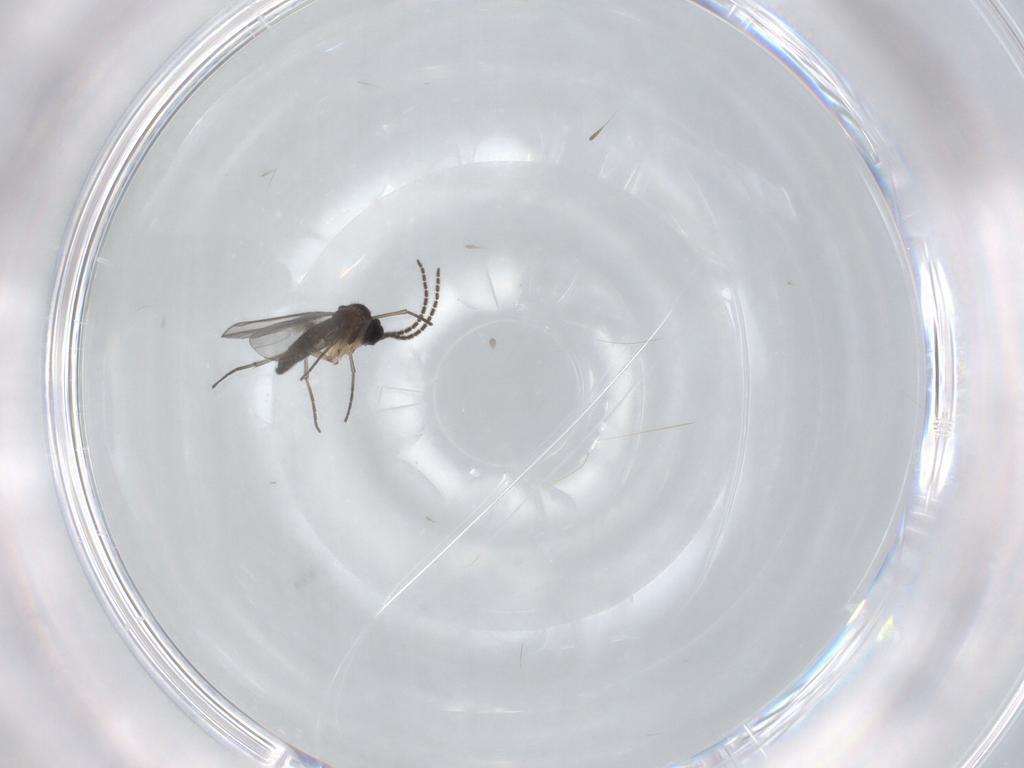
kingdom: Animalia
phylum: Arthropoda
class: Insecta
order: Diptera
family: Sciaridae
